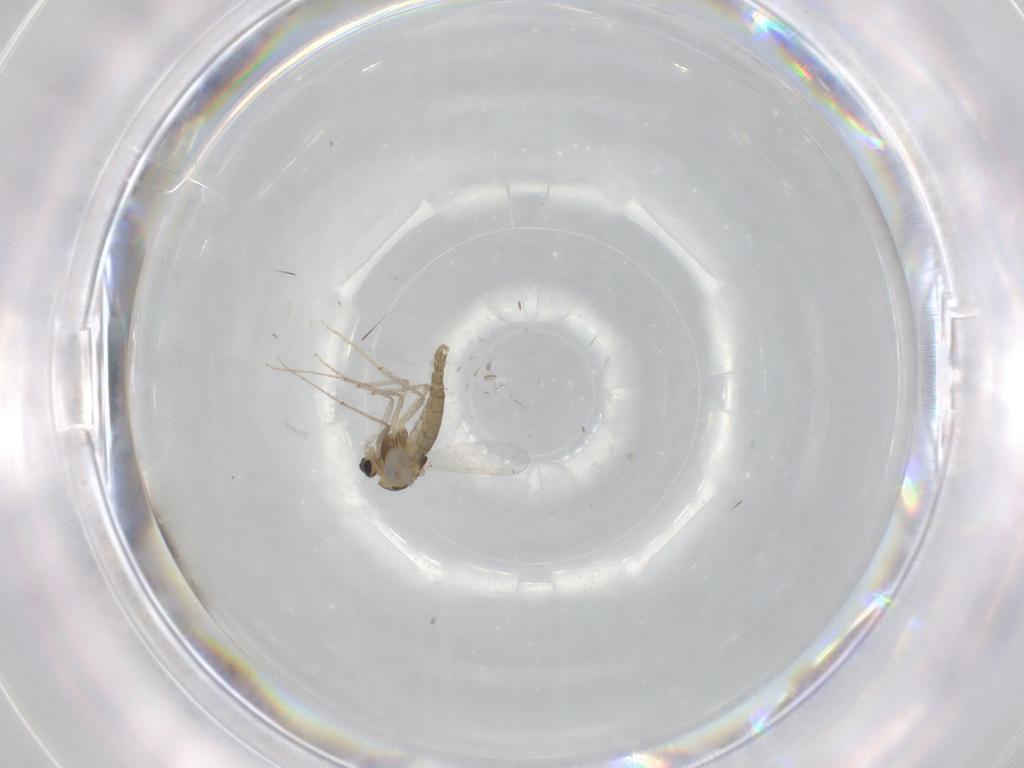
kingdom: Animalia
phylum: Arthropoda
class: Insecta
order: Diptera
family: Chironomidae
